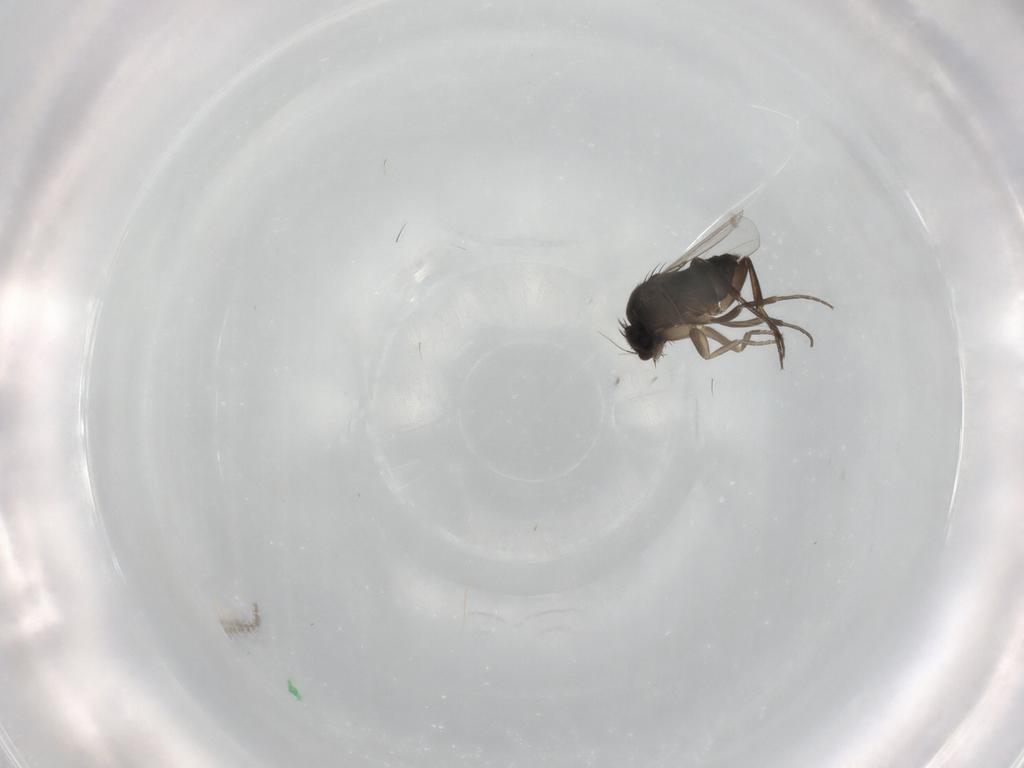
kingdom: Animalia
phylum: Arthropoda
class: Insecta
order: Diptera
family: Phoridae
